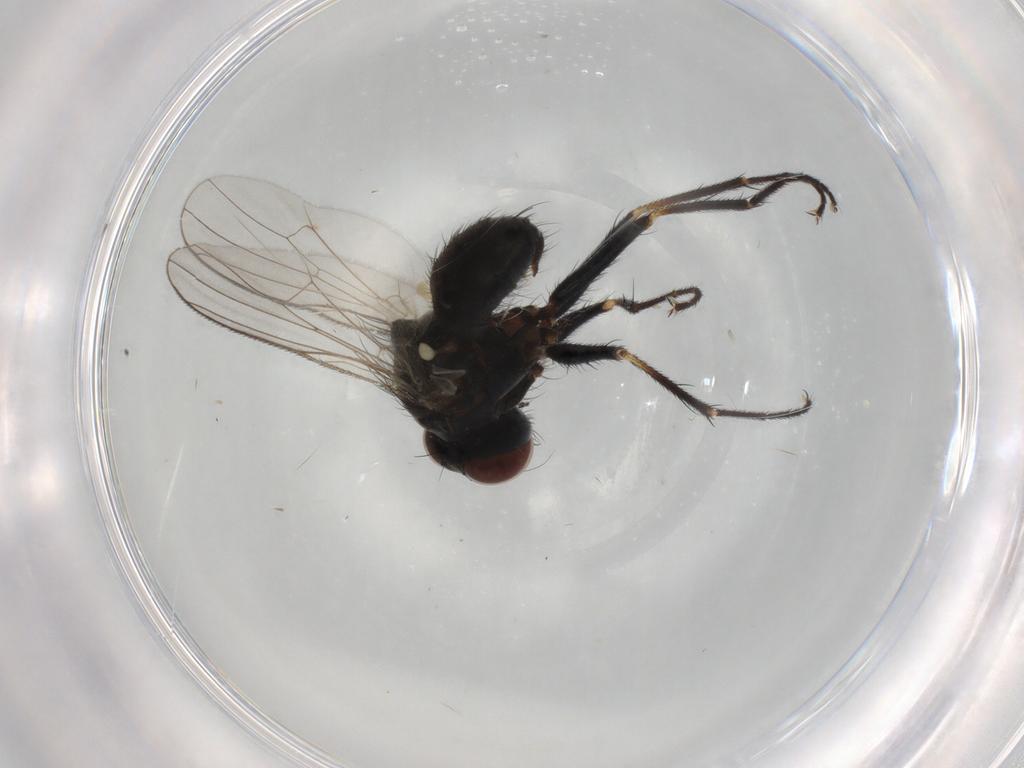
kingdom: Animalia
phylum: Arthropoda
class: Insecta
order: Diptera
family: Muscidae
